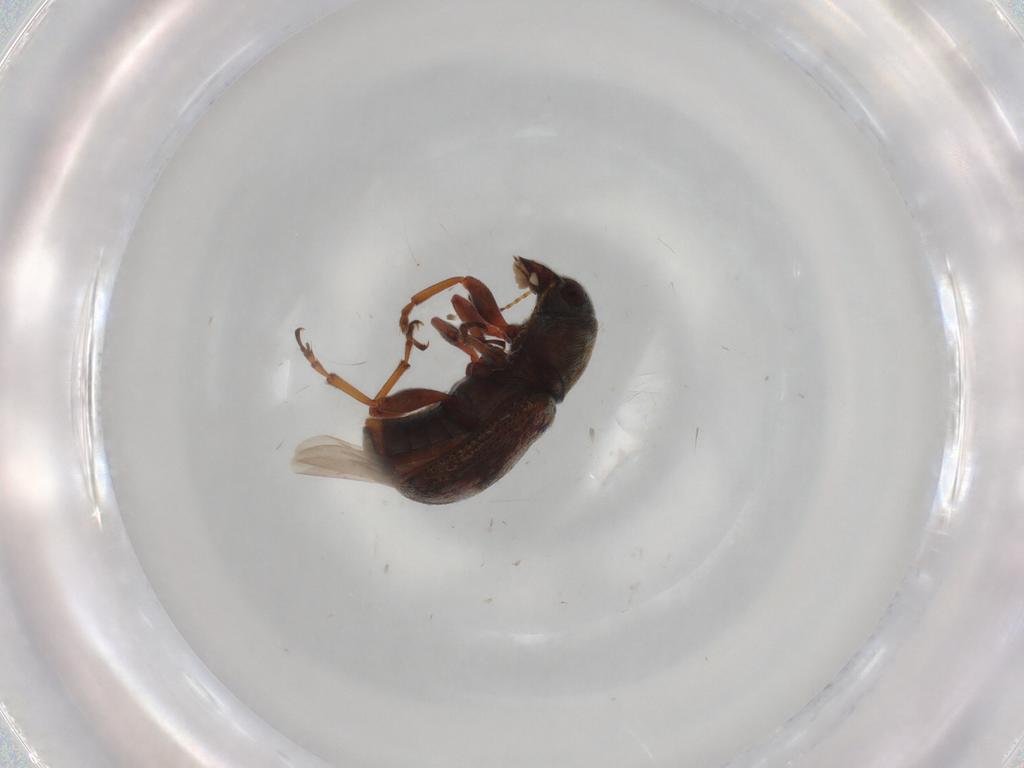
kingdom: Animalia
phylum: Arthropoda
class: Insecta
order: Coleoptera
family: Anthribidae
